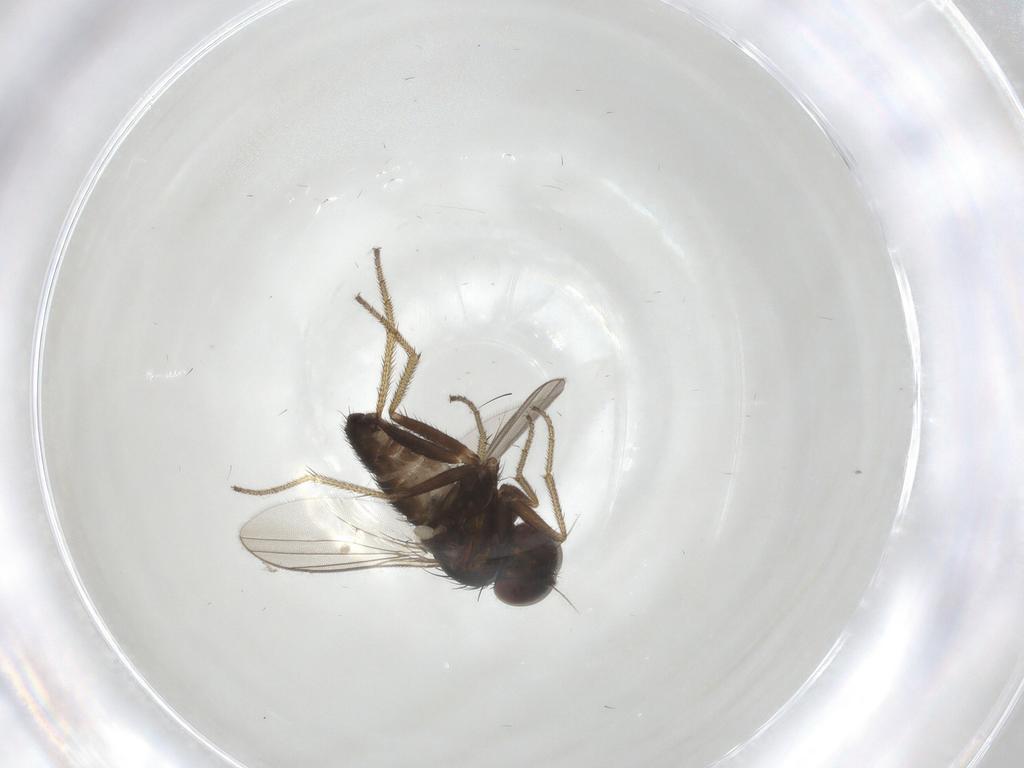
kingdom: Animalia
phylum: Arthropoda
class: Insecta
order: Diptera
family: Dolichopodidae
